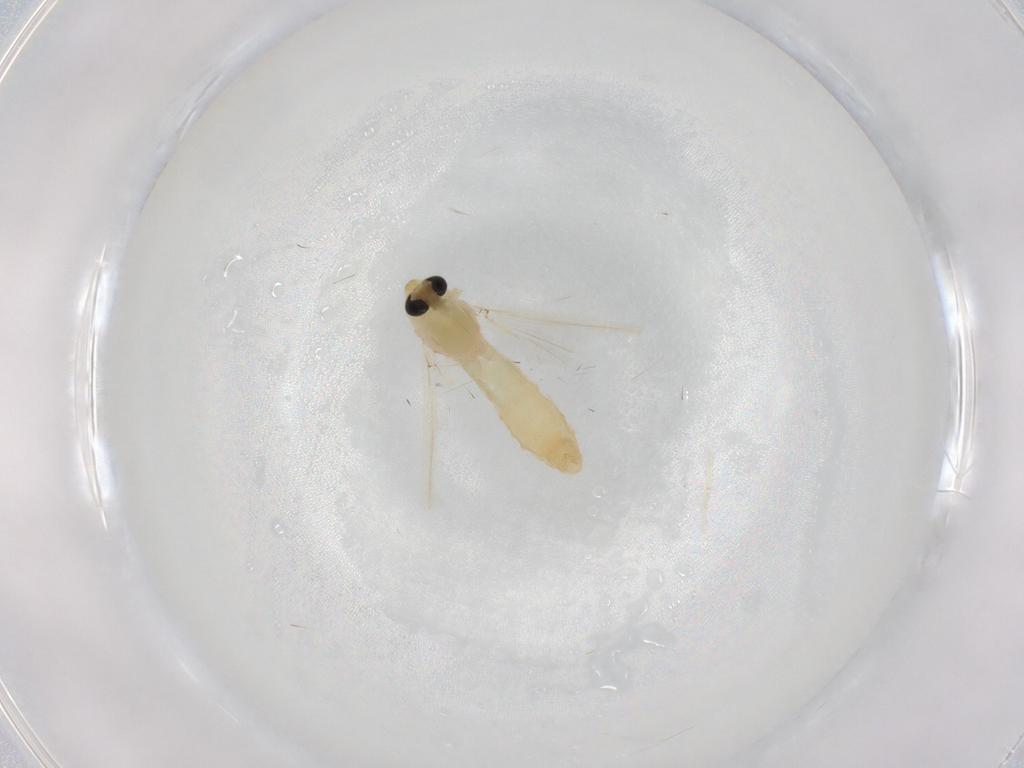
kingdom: Animalia
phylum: Arthropoda
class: Insecta
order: Diptera
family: Chironomidae
